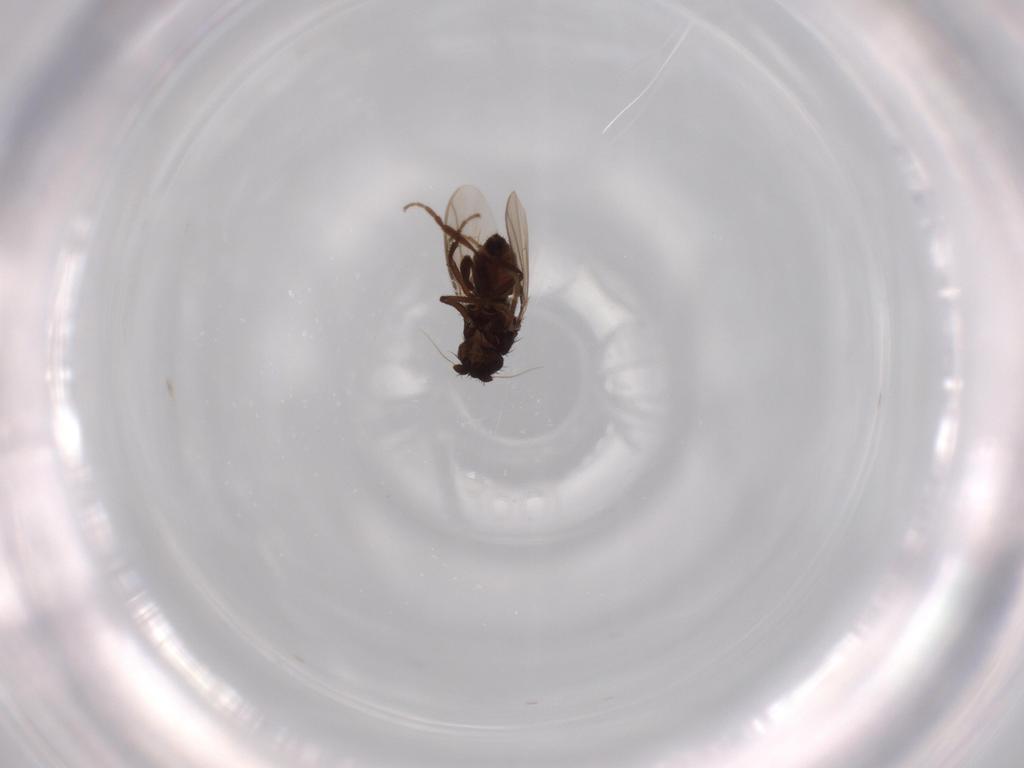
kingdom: Animalia
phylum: Arthropoda
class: Insecta
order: Diptera
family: Sphaeroceridae
